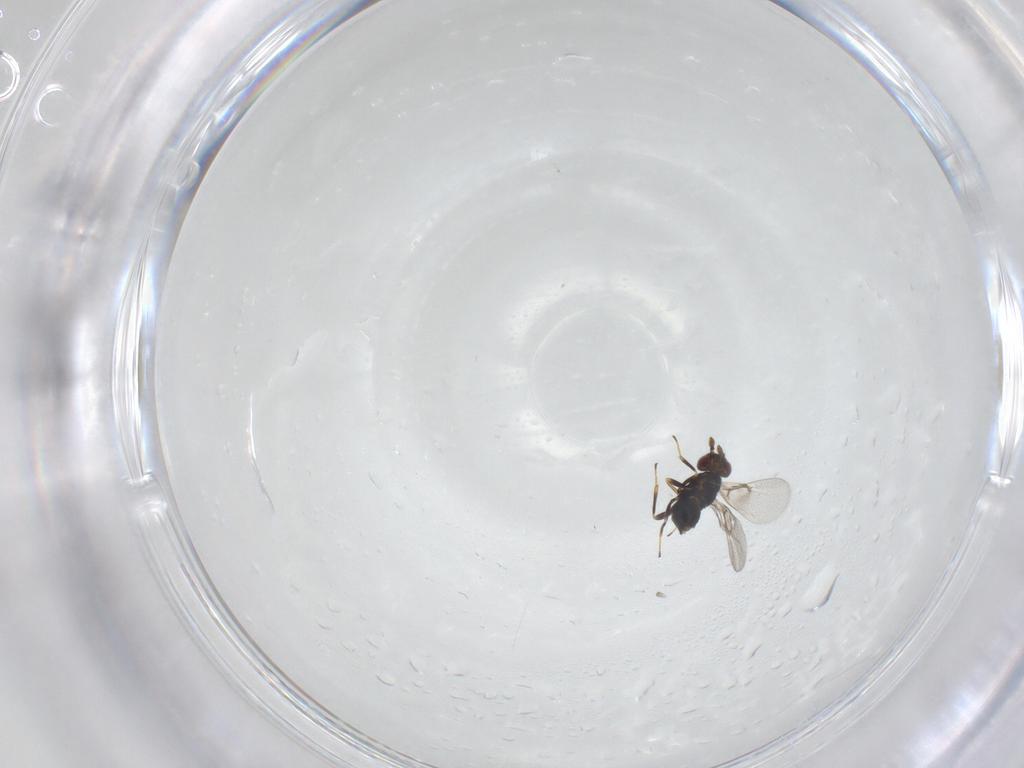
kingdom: Animalia
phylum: Arthropoda
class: Insecta
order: Hymenoptera
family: Trichogrammatidae
